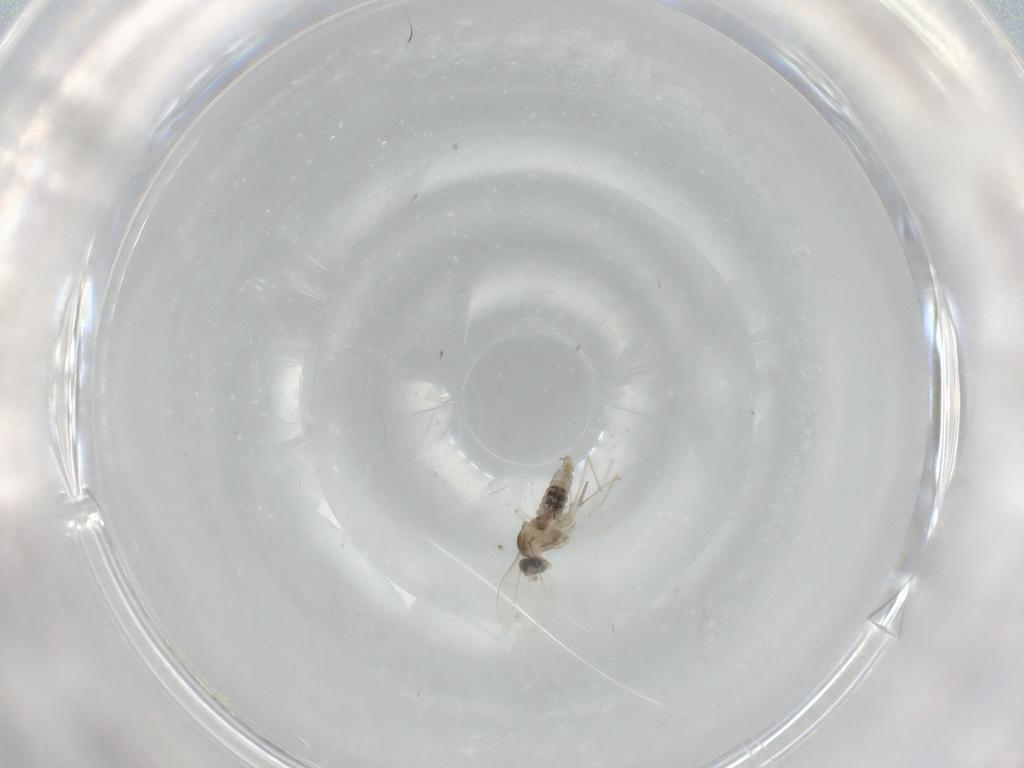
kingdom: Animalia
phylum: Arthropoda
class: Insecta
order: Diptera
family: Cecidomyiidae
